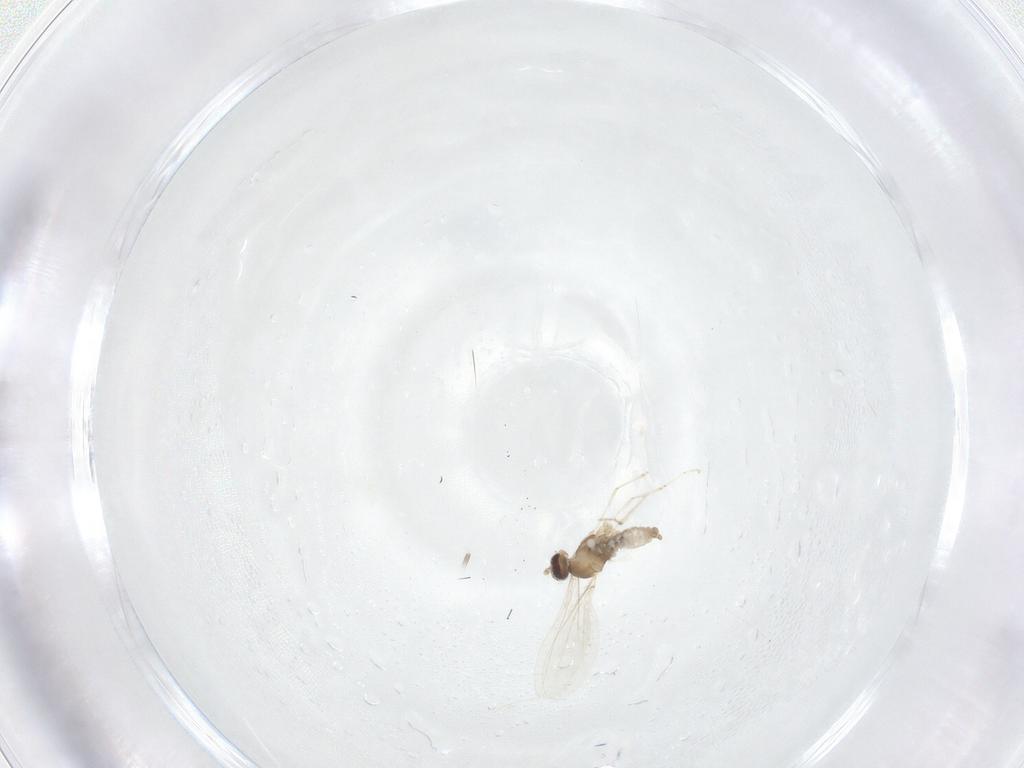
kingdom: Animalia
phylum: Arthropoda
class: Insecta
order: Diptera
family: Cecidomyiidae
